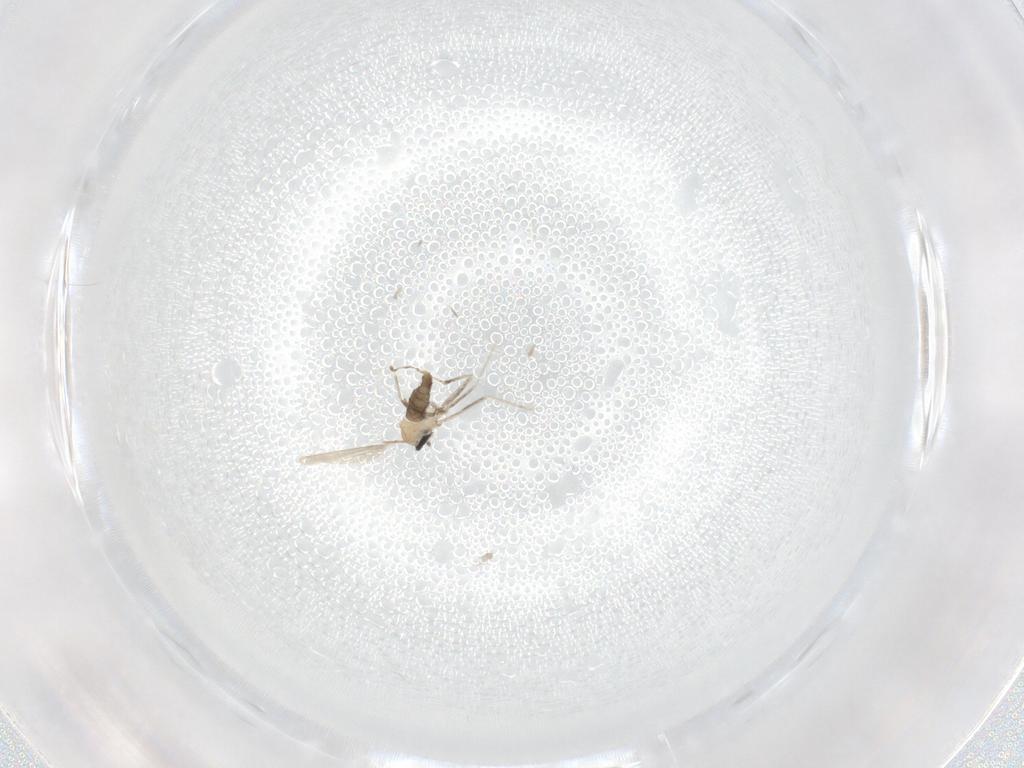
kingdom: Animalia
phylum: Arthropoda
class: Insecta
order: Diptera
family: Cecidomyiidae
